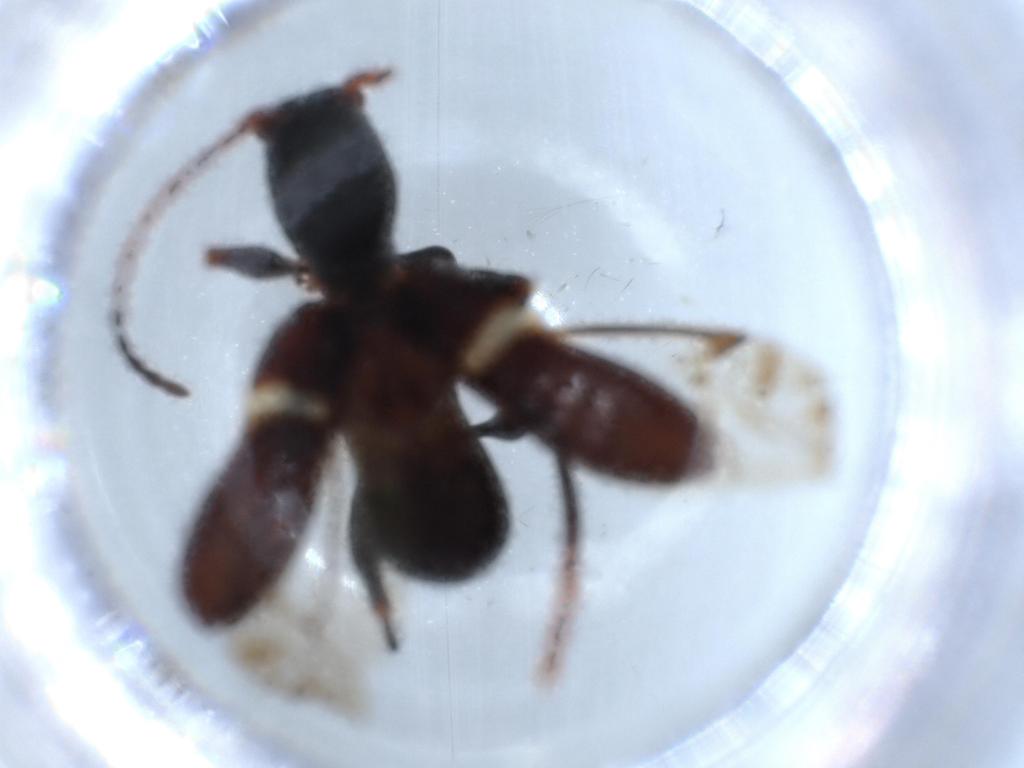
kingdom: Animalia
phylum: Arthropoda
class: Insecta
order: Coleoptera
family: Cerambycidae
